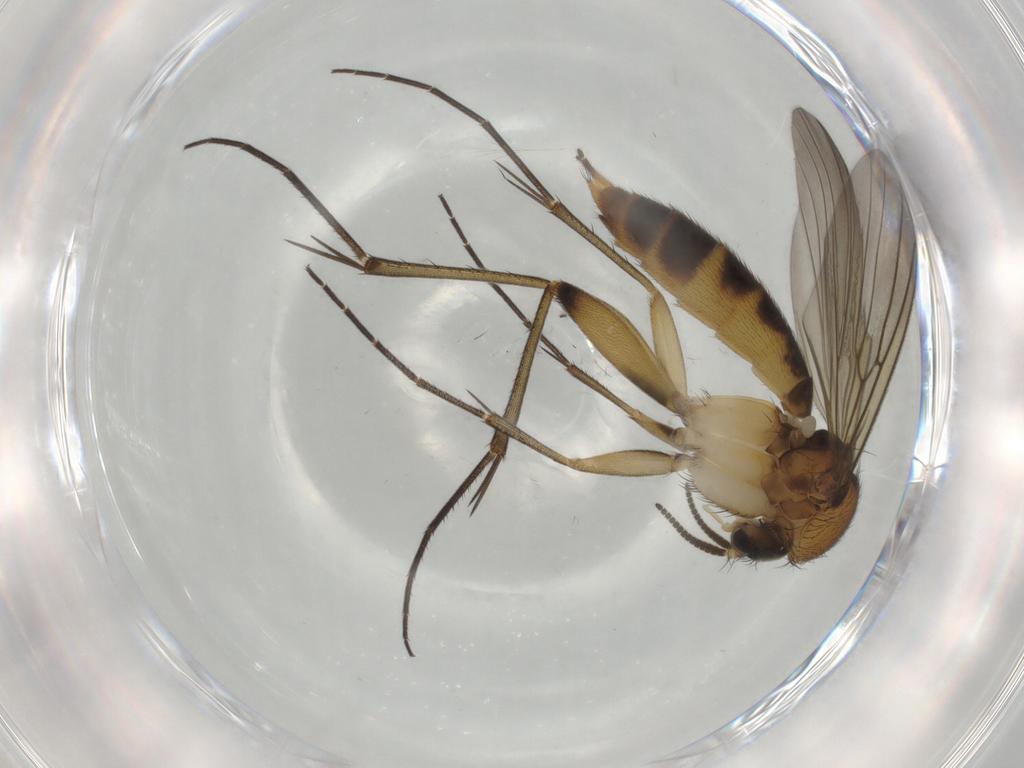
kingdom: Animalia
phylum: Arthropoda
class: Insecta
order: Diptera
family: Mycetophilidae
